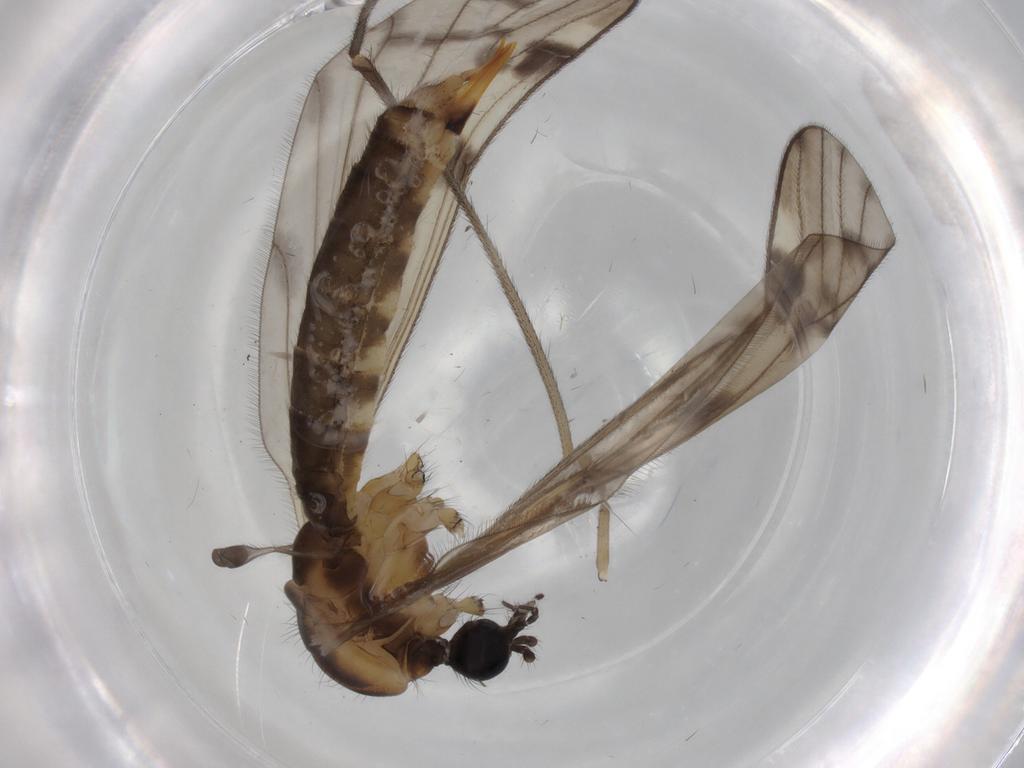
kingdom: Animalia
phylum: Arthropoda
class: Insecta
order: Diptera
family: Limoniidae
